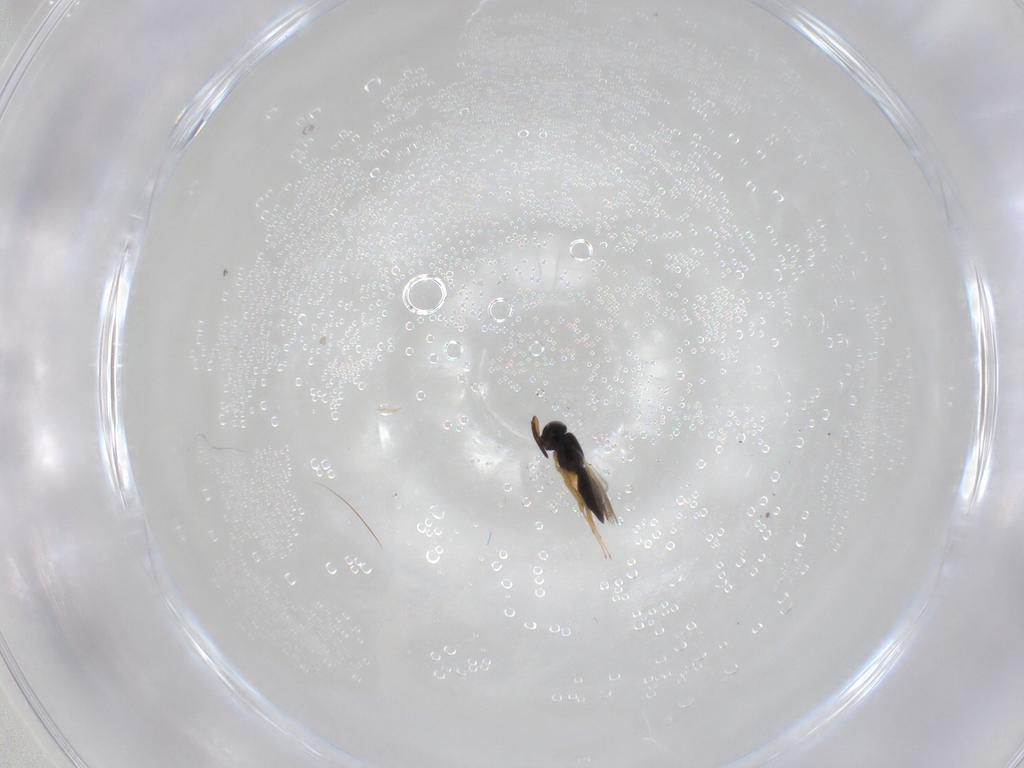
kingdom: Animalia
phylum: Arthropoda
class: Insecta
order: Hymenoptera
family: Scelionidae
